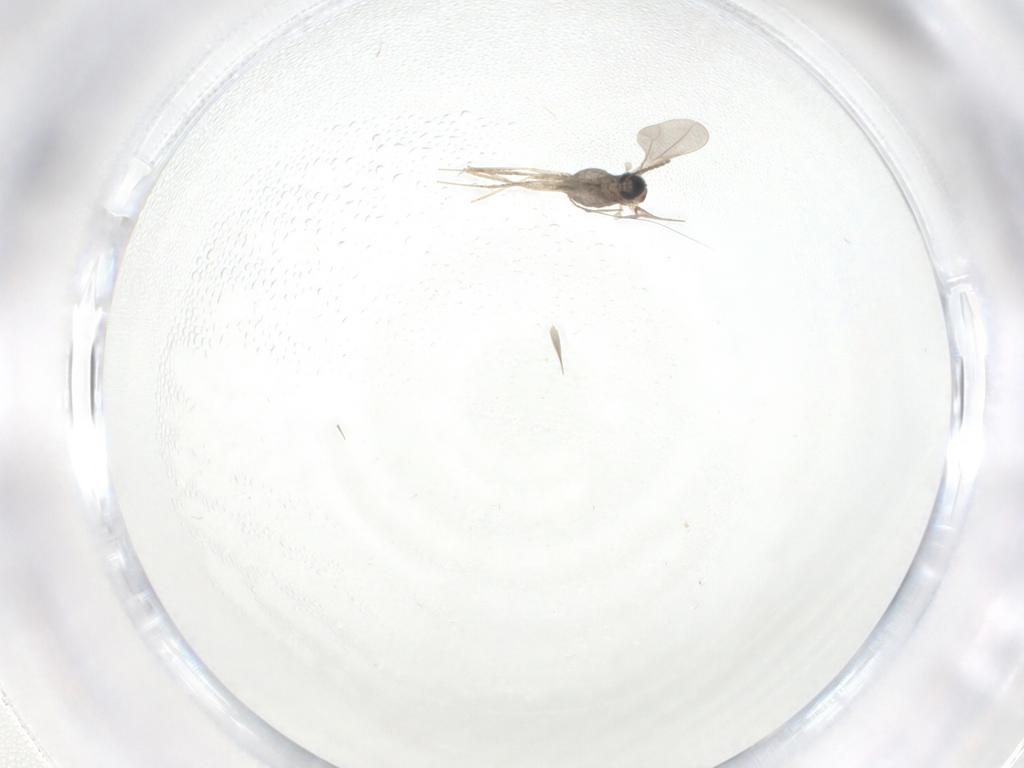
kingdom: Animalia
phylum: Arthropoda
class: Insecta
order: Diptera
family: Cecidomyiidae
